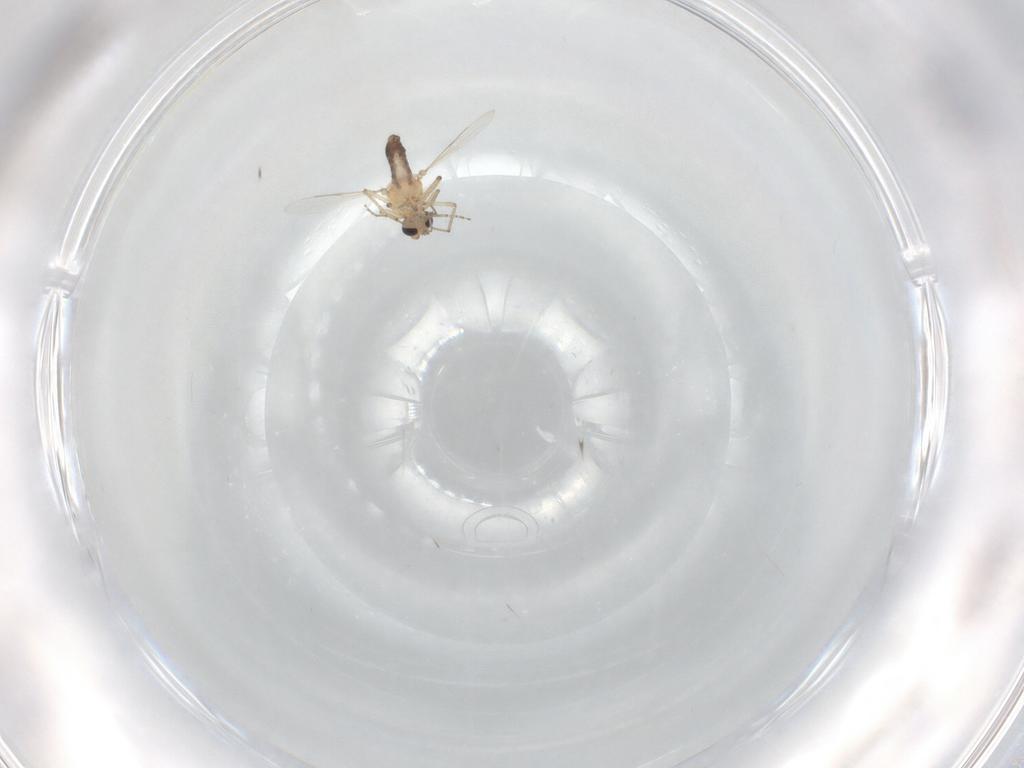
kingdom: Animalia
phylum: Arthropoda
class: Insecta
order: Diptera
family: Ceratopogonidae
